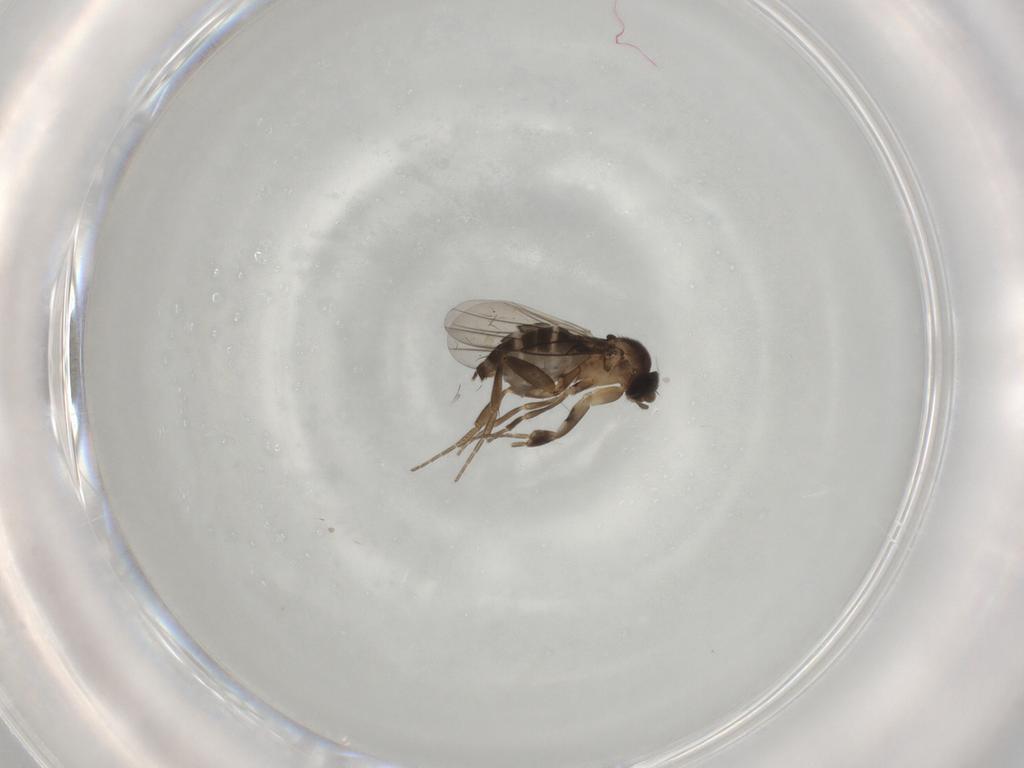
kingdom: Animalia
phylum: Arthropoda
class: Insecta
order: Diptera
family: Phoridae
